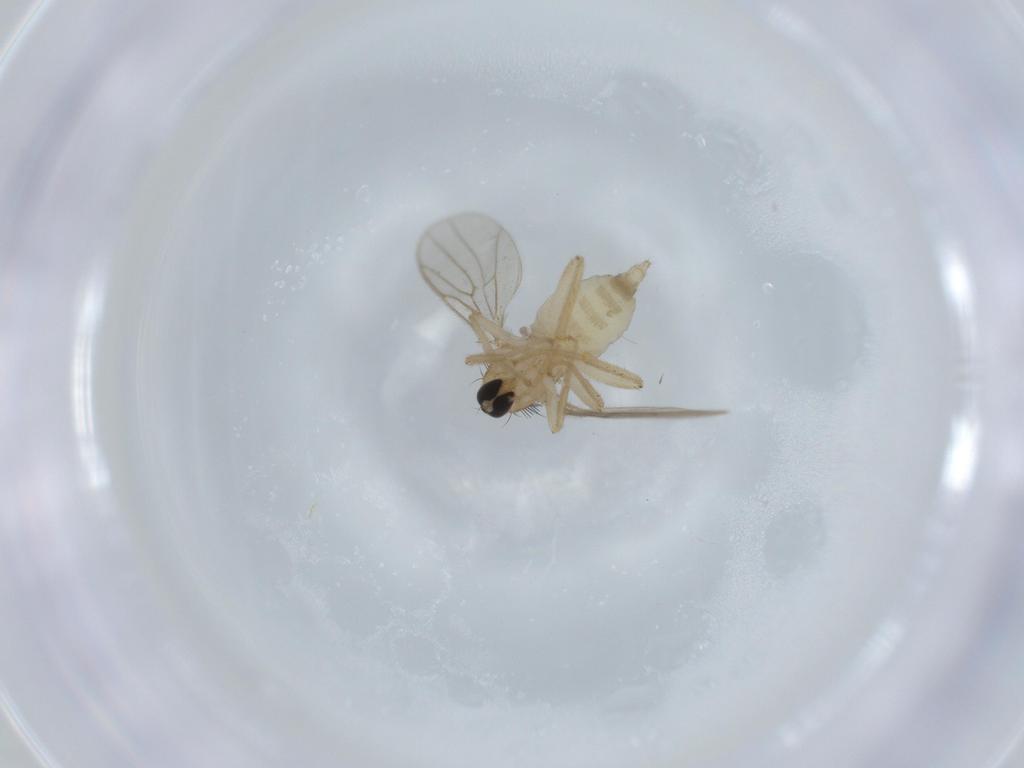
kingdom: Animalia
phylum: Arthropoda
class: Insecta
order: Diptera
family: Hybotidae
